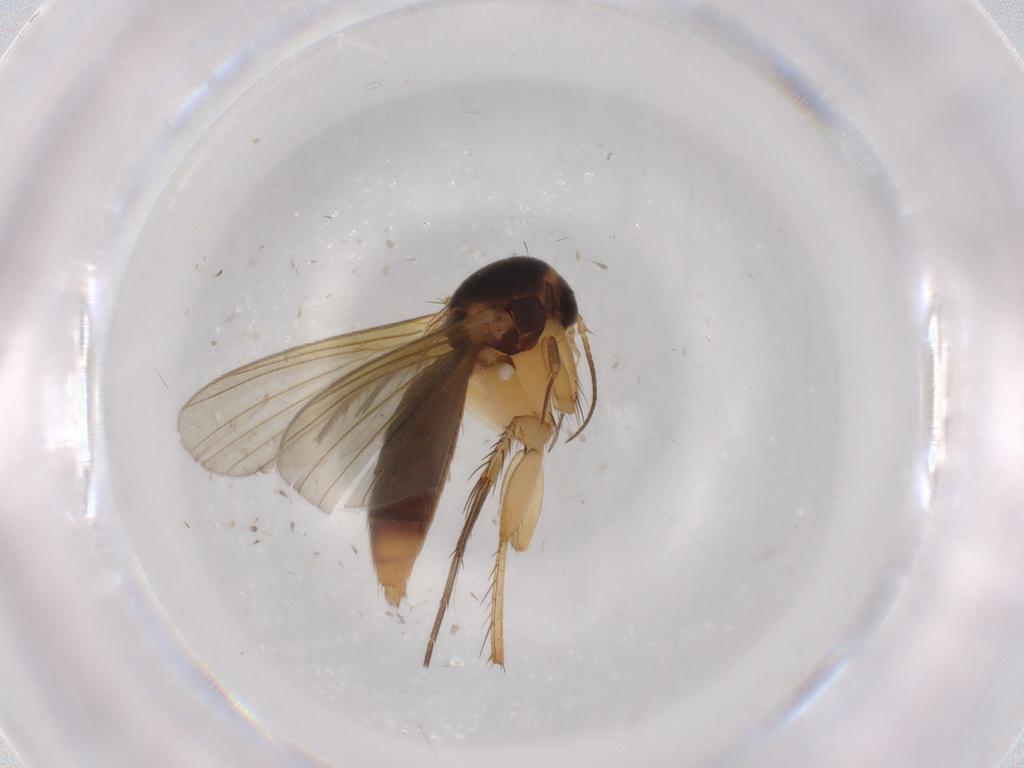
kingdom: Animalia
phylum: Arthropoda
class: Insecta
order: Diptera
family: Mycetophilidae
